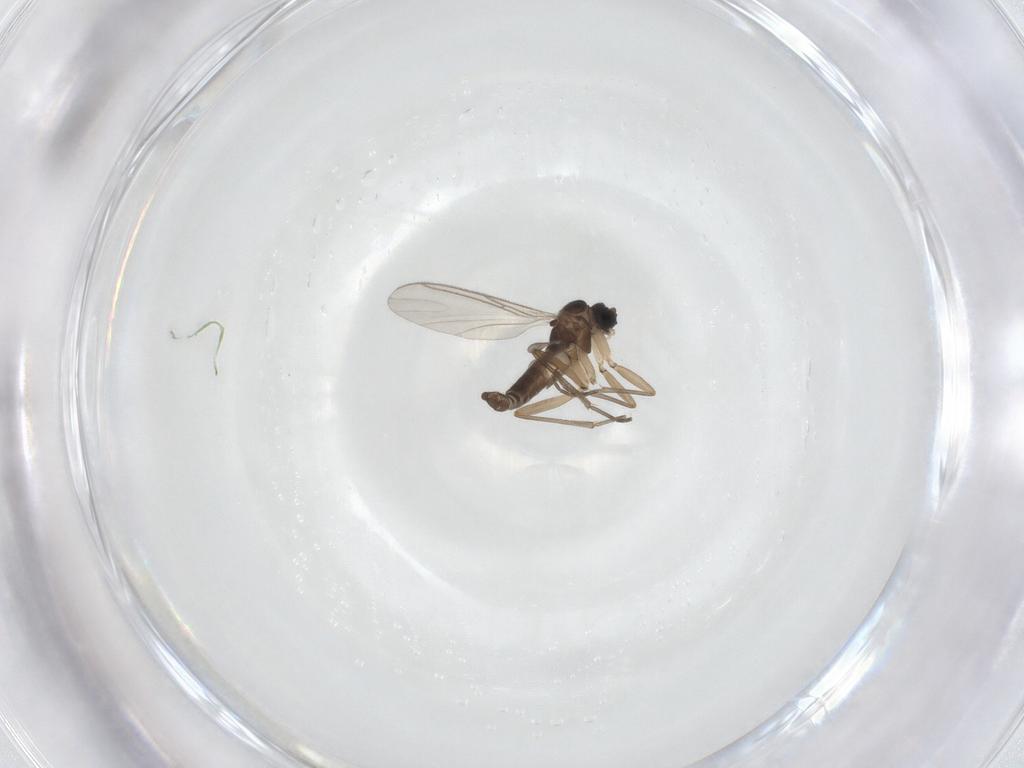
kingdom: Animalia
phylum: Arthropoda
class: Insecta
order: Diptera
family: Sciaridae
